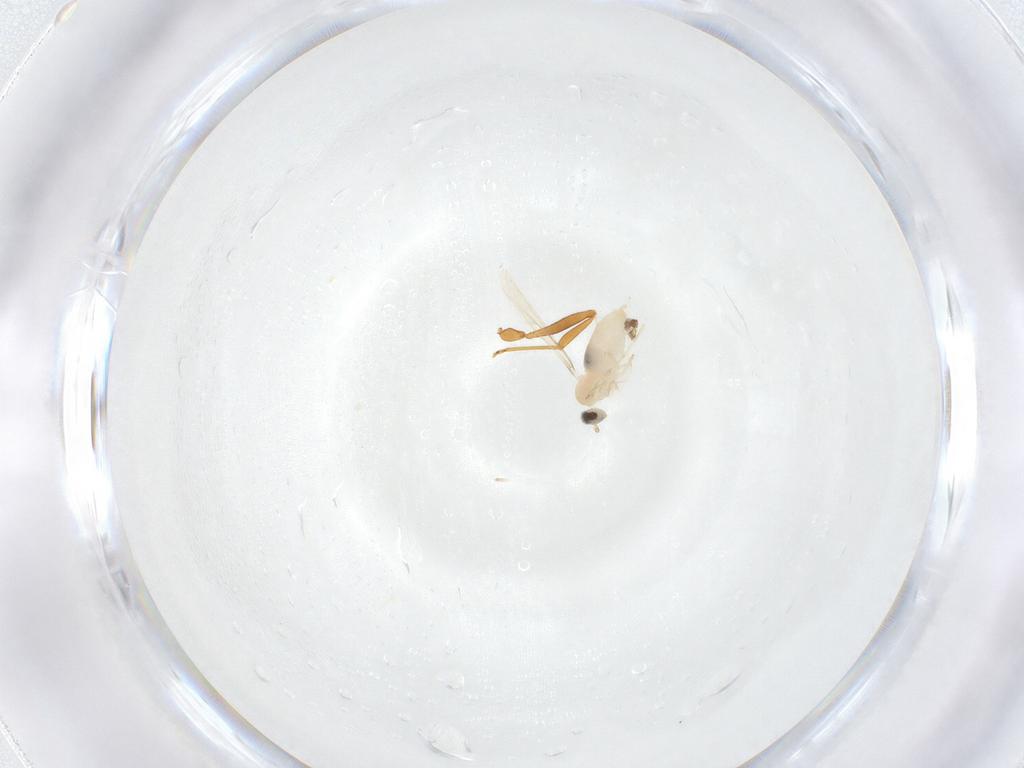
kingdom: Animalia
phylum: Arthropoda
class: Insecta
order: Diptera
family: Cecidomyiidae
